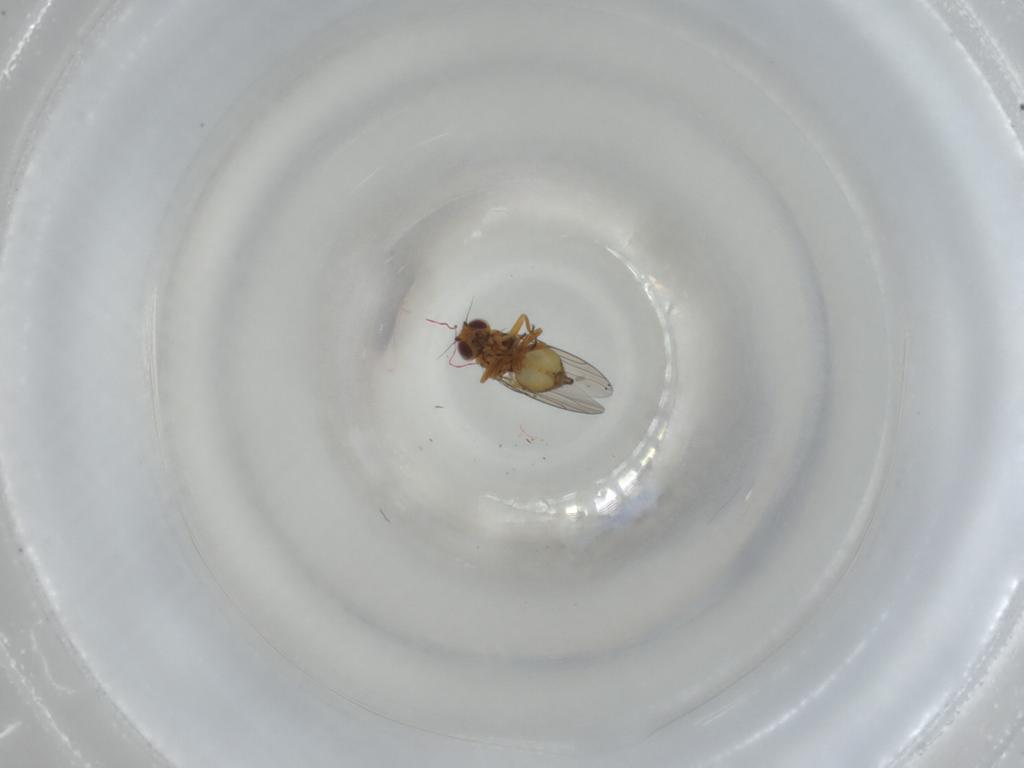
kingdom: Animalia
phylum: Arthropoda
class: Insecta
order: Diptera
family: Chloropidae
